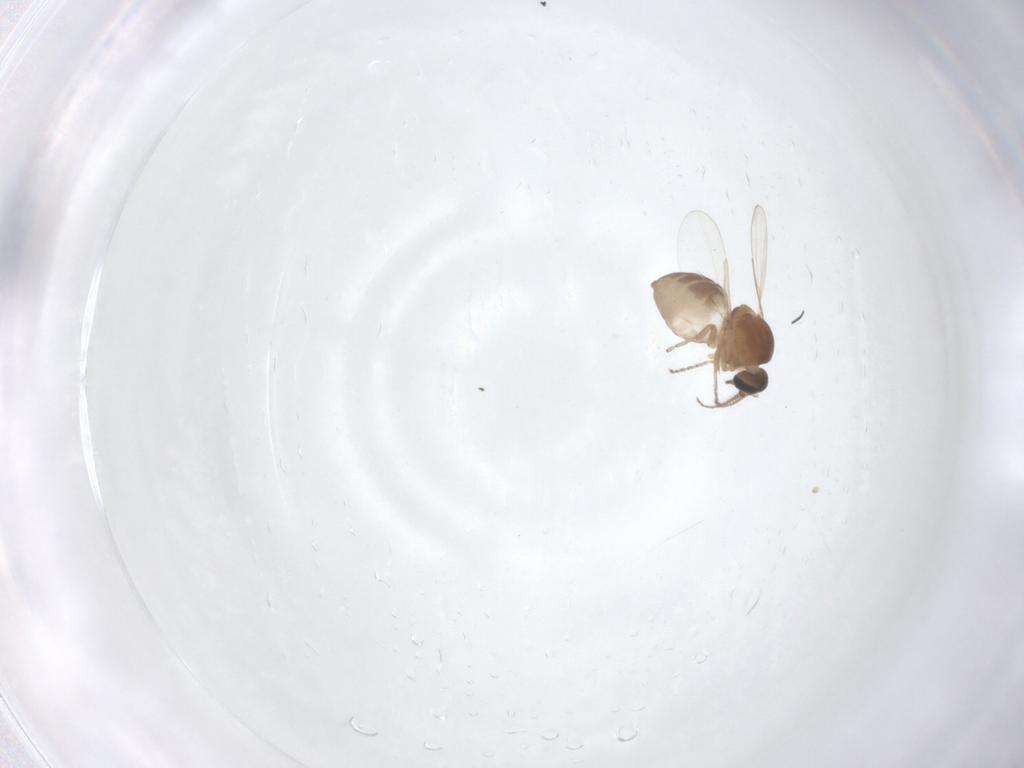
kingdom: Animalia
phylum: Arthropoda
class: Insecta
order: Diptera
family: Ceratopogonidae
